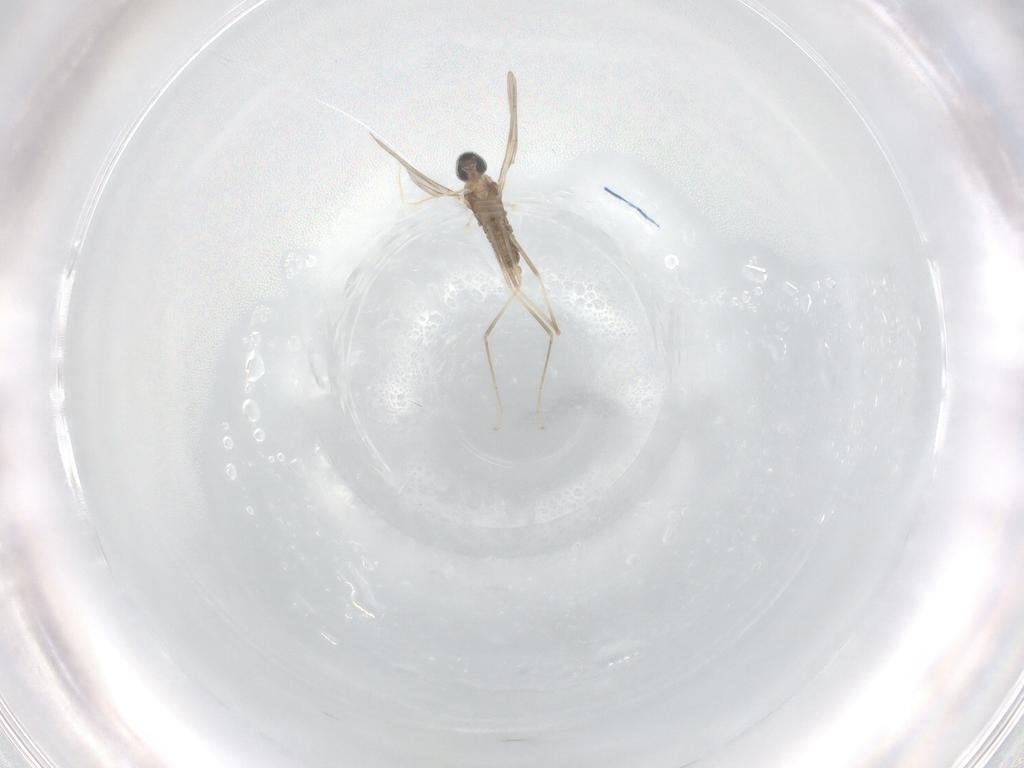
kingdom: Animalia
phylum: Arthropoda
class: Insecta
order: Diptera
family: Cecidomyiidae
